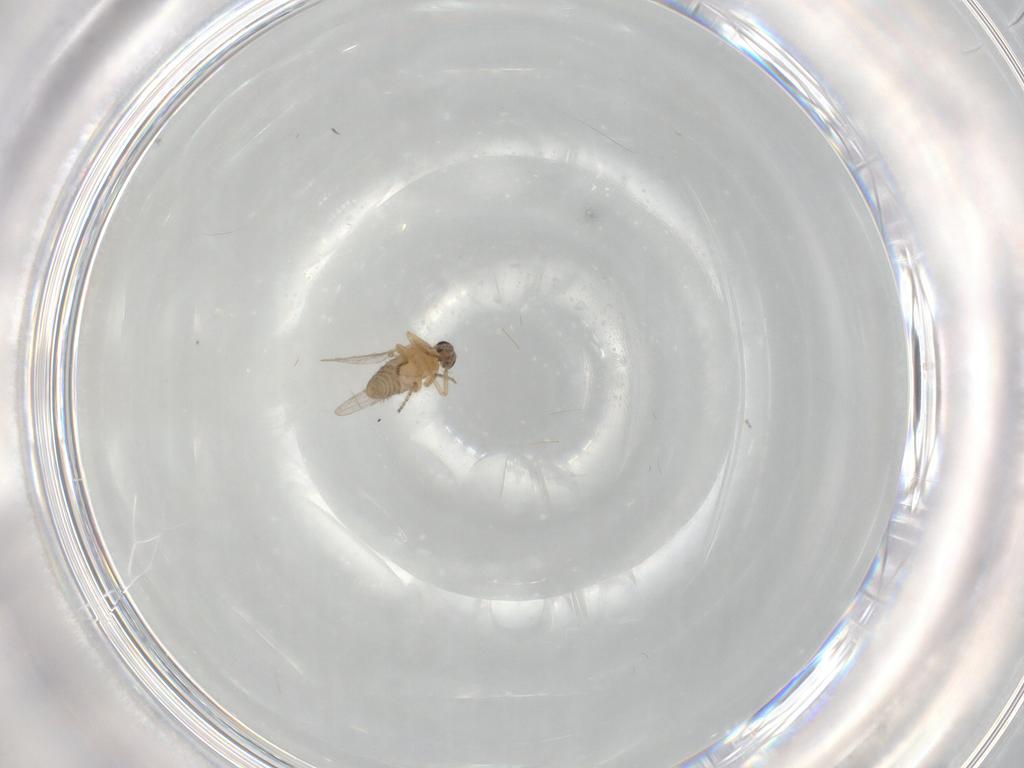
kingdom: Animalia
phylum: Arthropoda
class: Insecta
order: Diptera
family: Ceratopogonidae
